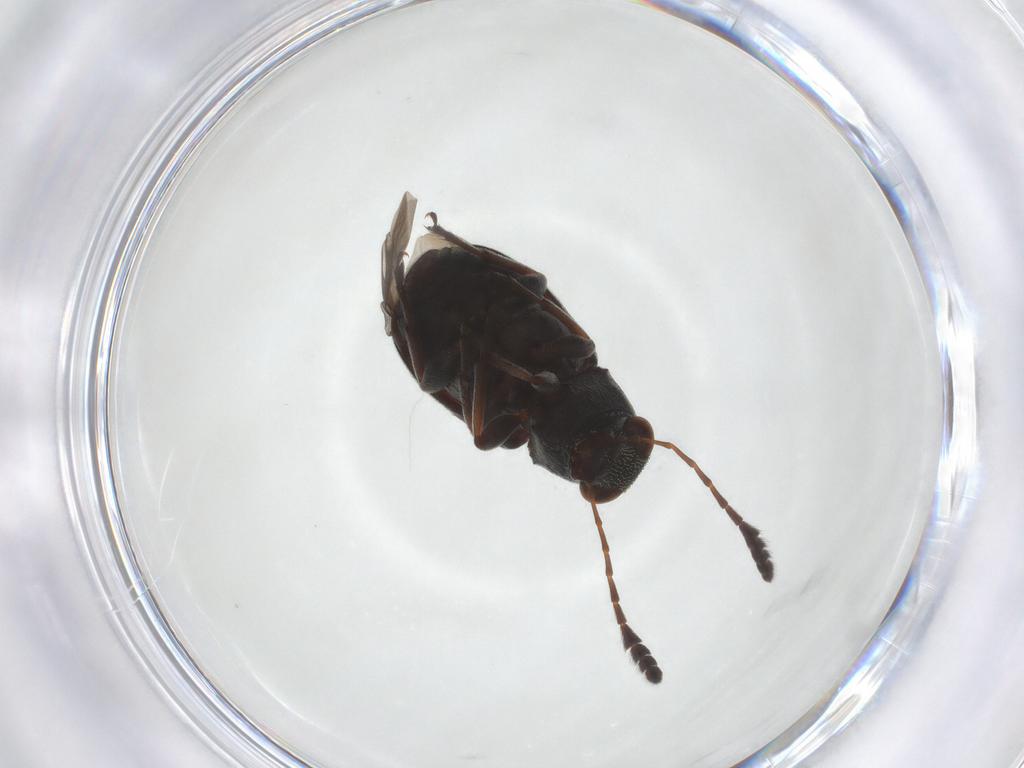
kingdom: Animalia
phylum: Arthropoda
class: Insecta
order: Coleoptera
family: Anthribidae
